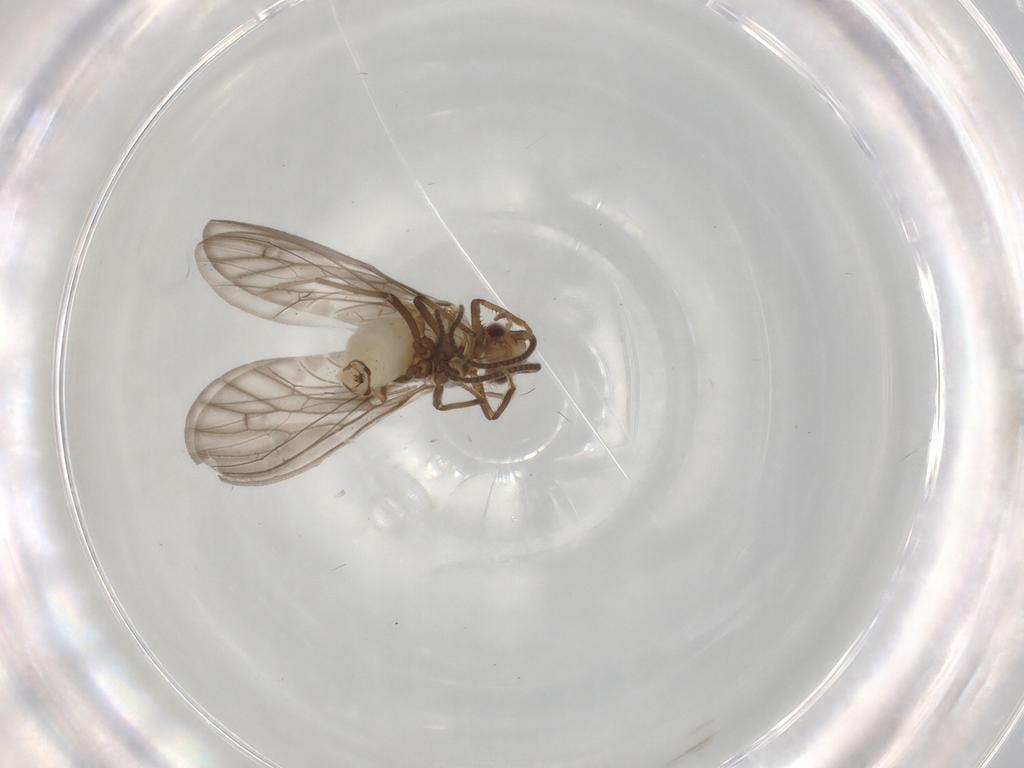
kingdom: Animalia
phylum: Arthropoda
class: Insecta
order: Neuroptera
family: Coniopterygidae
